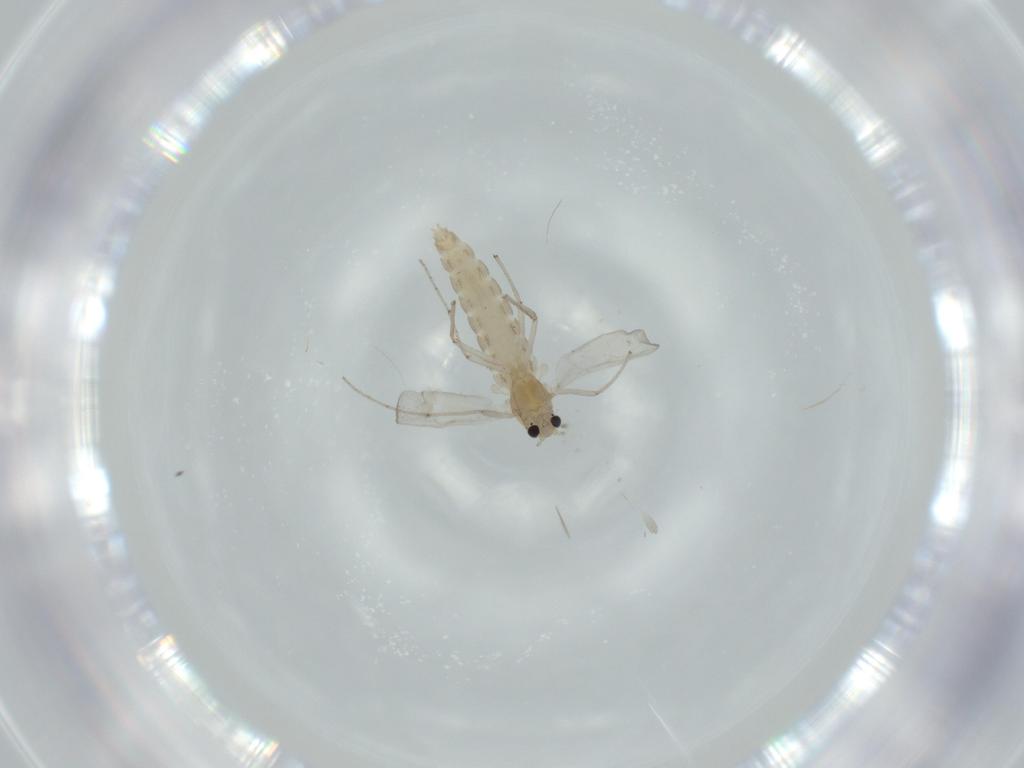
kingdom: Animalia
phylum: Arthropoda
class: Insecta
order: Diptera
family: Chironomidae
